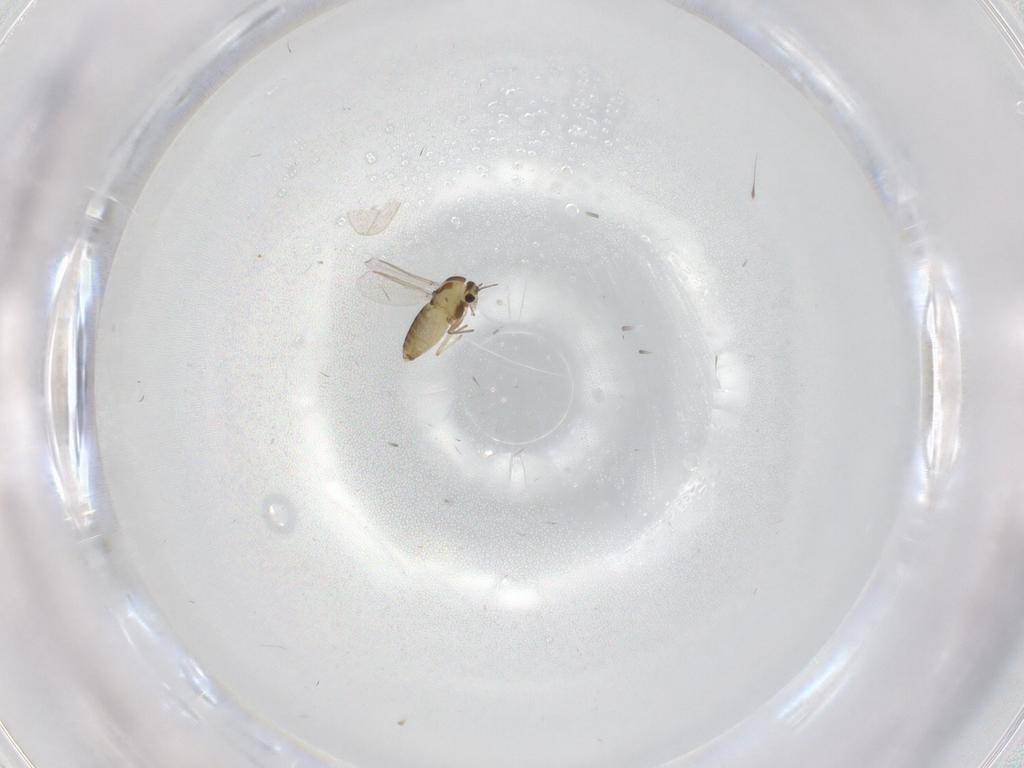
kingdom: Animalia
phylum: Arthropoda
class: Insecta
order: Diptera
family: Chironomidae
